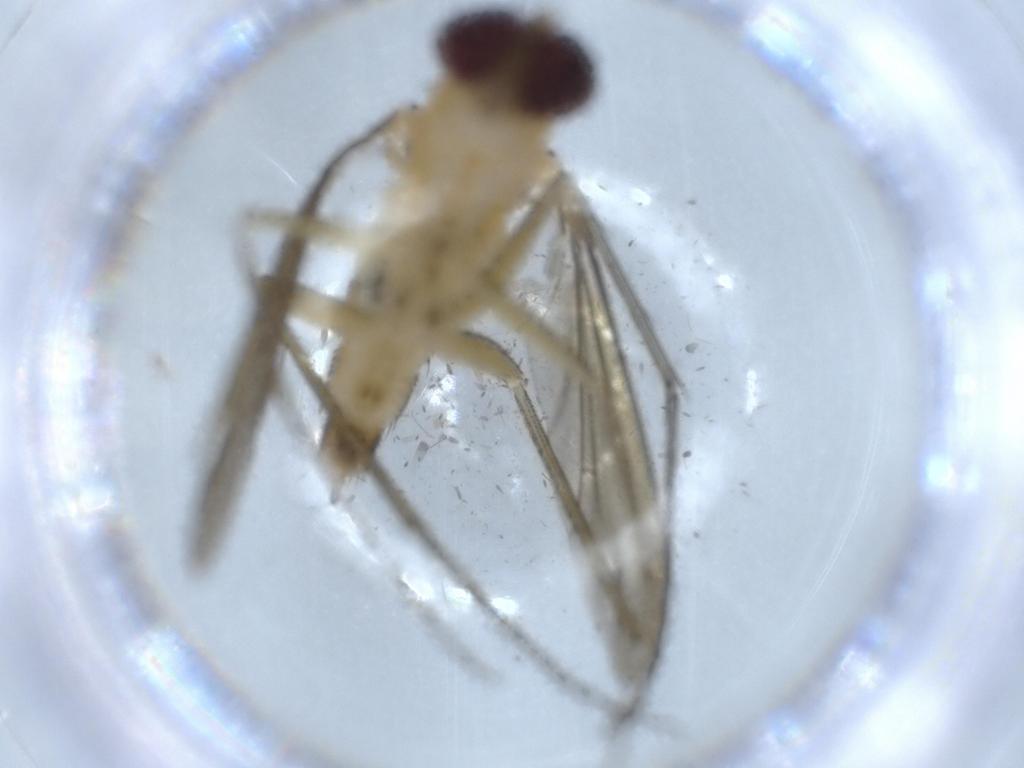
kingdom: Animalia
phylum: Arthropoda
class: Insecta
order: Diptera
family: Dolichopodidae
